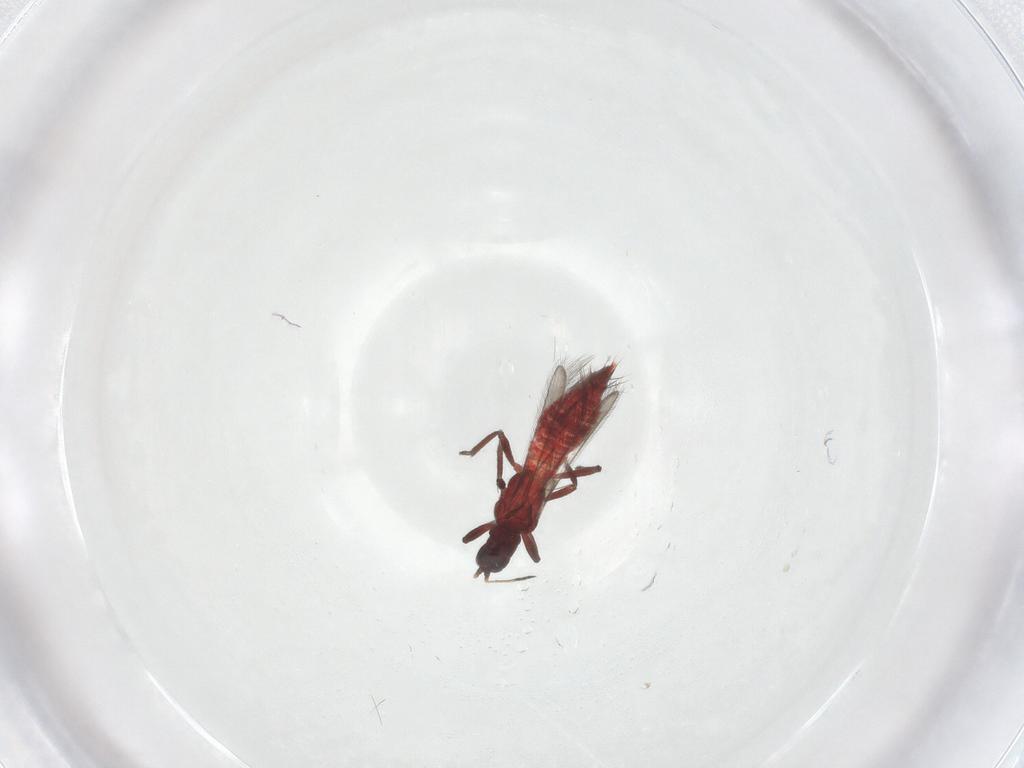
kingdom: Animalia
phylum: Arthropoda
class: Insecta
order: Thysanoptera
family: Aeolothripidae
